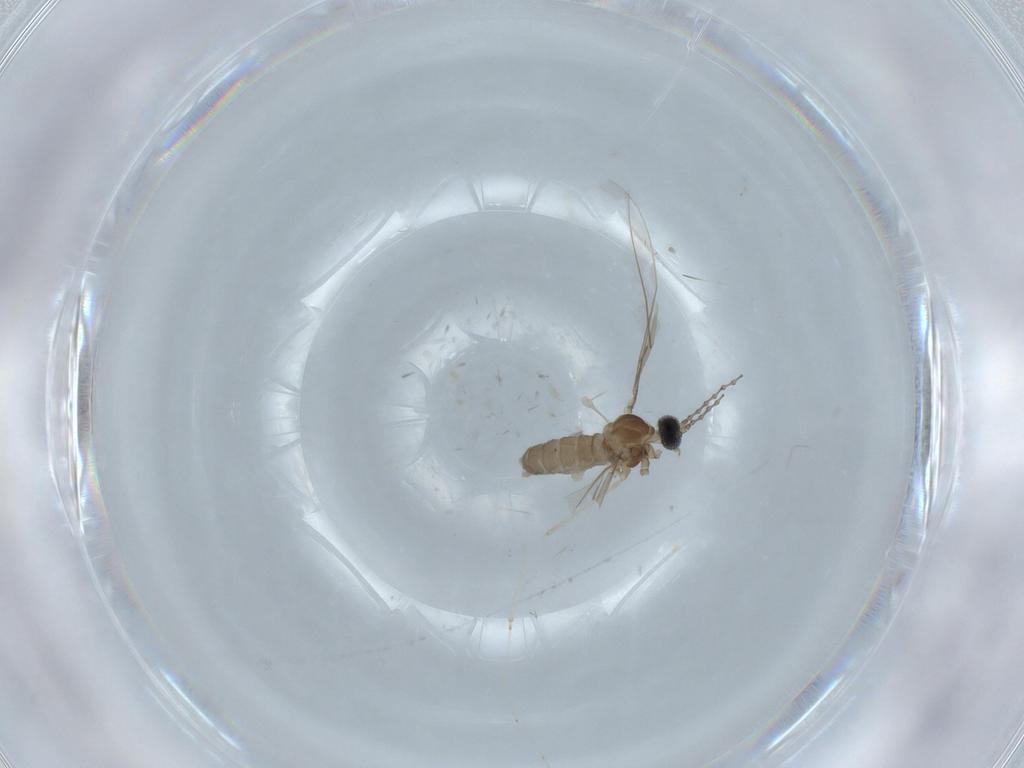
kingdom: Animalia
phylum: Arthropoda
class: Insecta
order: Diptera
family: Cecidomyiidae
